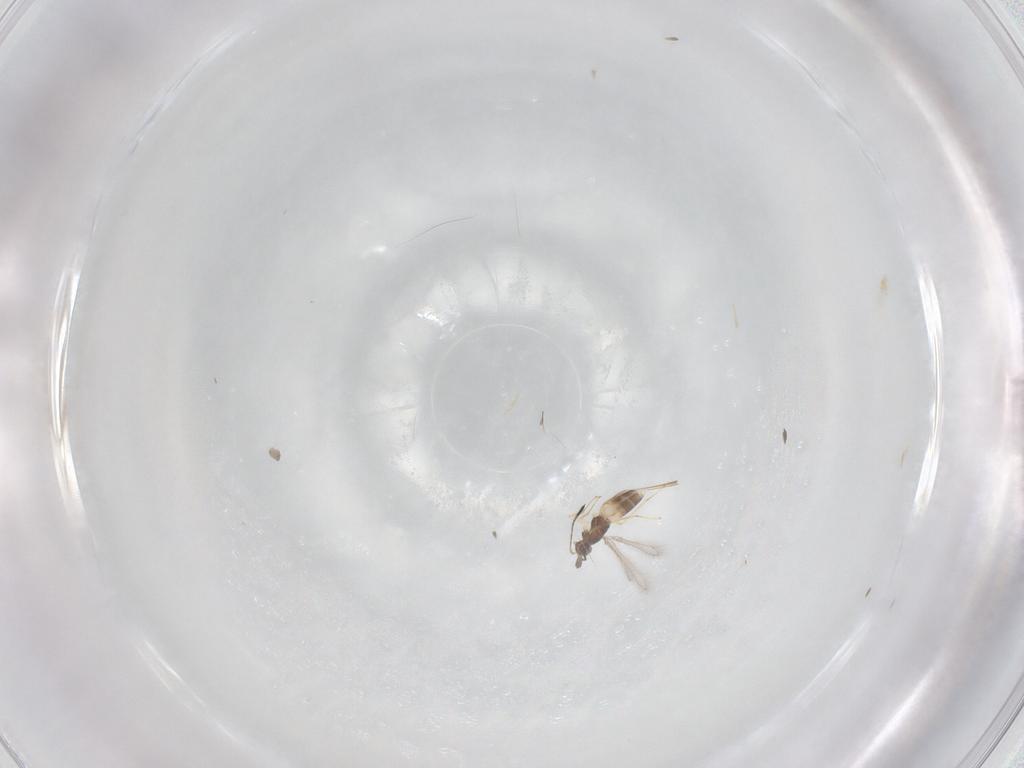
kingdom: Animalia
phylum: Arthropoda
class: Insecta
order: Hymenoptera
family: Mymaridae
